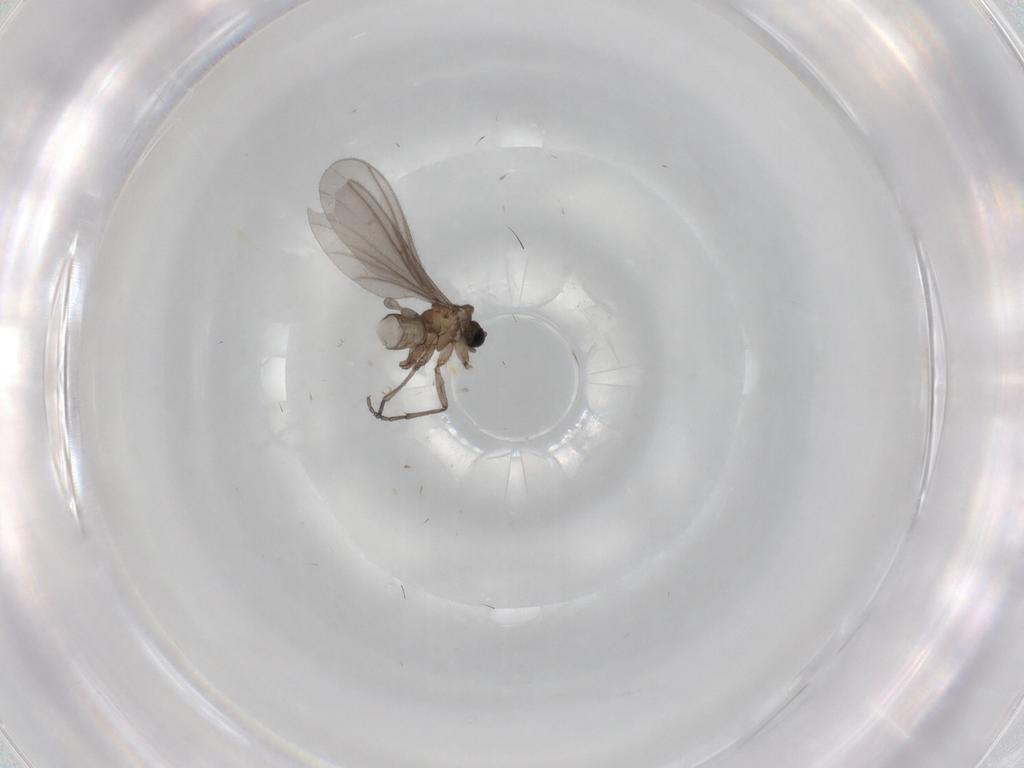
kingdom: Animalia
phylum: Arthropoda
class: Insecta
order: Diptera
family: Sciaridae
